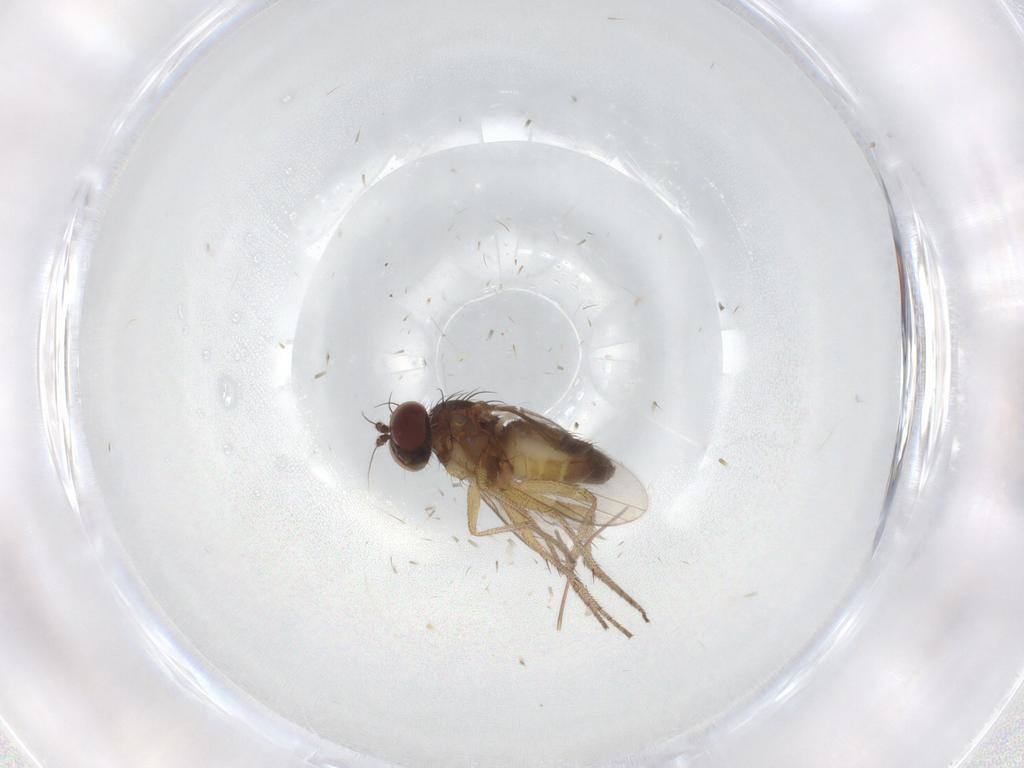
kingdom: Animalia
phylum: Arthropoda
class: Insecta
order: Diptera
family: Dolichopodidae
